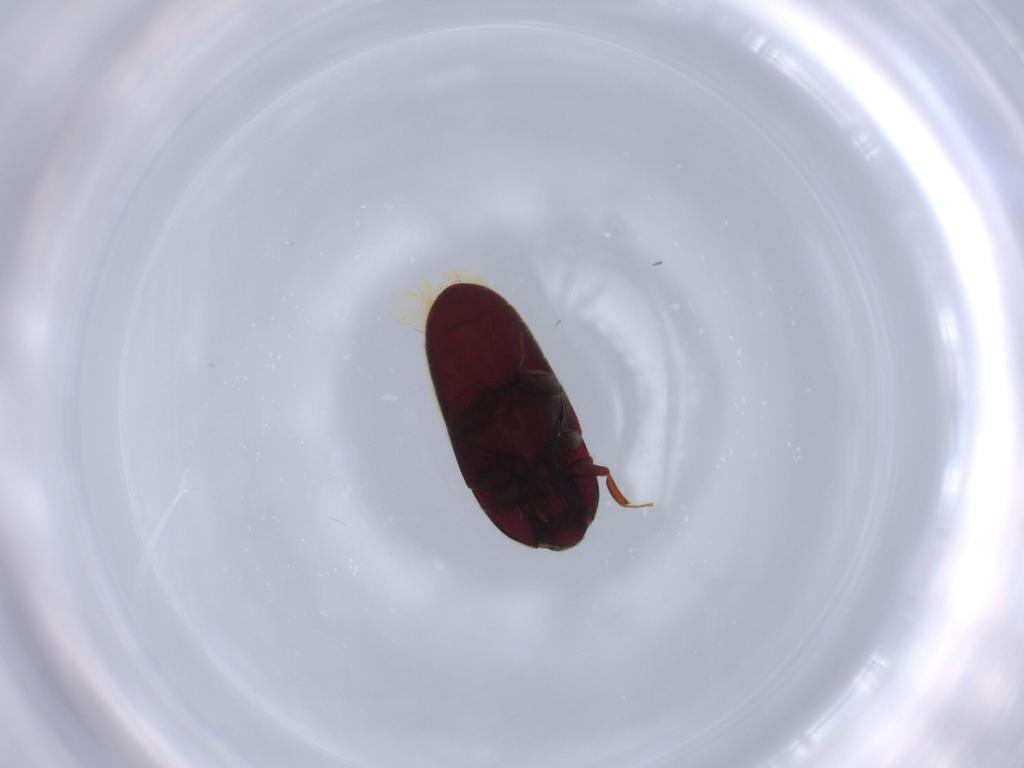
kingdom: Animalia
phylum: Arthropoda
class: Insecta
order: Coleoptera
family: Throscidae
